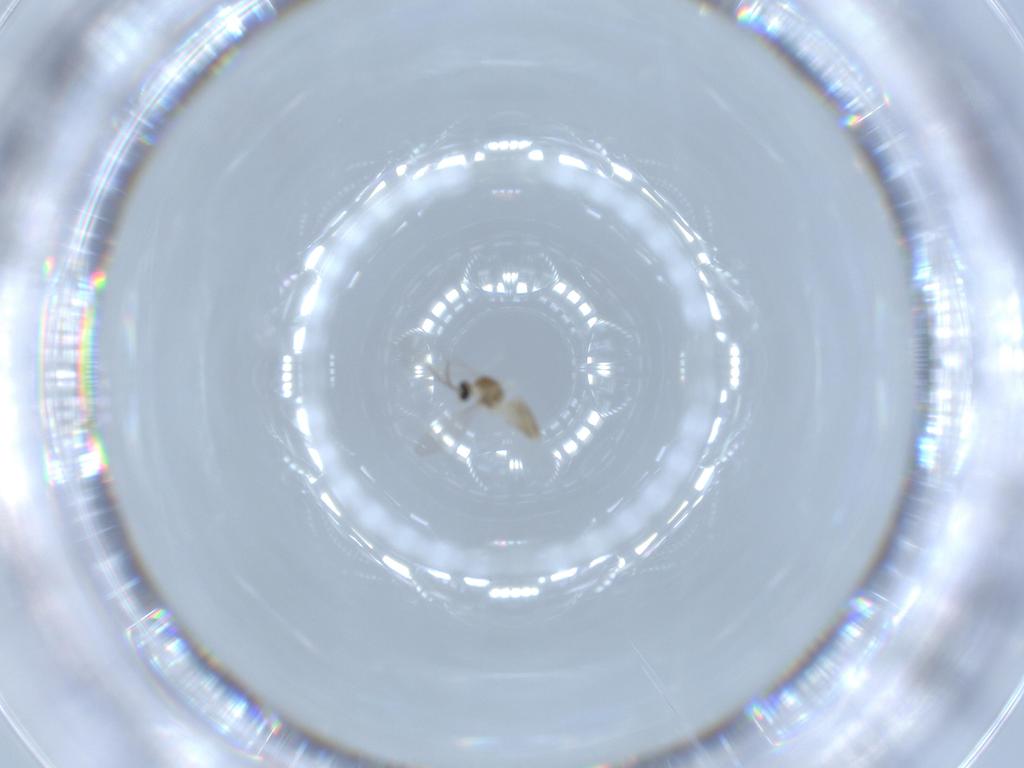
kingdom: Animalia
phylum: Arthropoda
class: Insecta
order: Diptera
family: Cecidomyiidae
